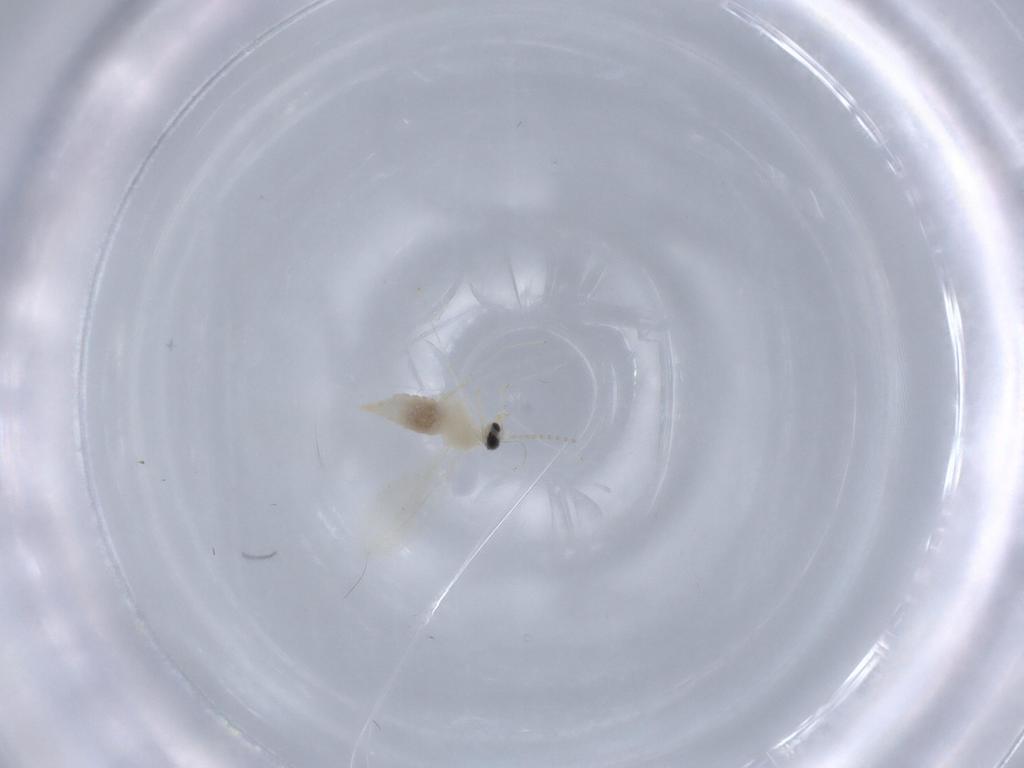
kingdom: Animalia
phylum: Arthropoda
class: Insecta
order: Diptera
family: Cecidomyiidae
